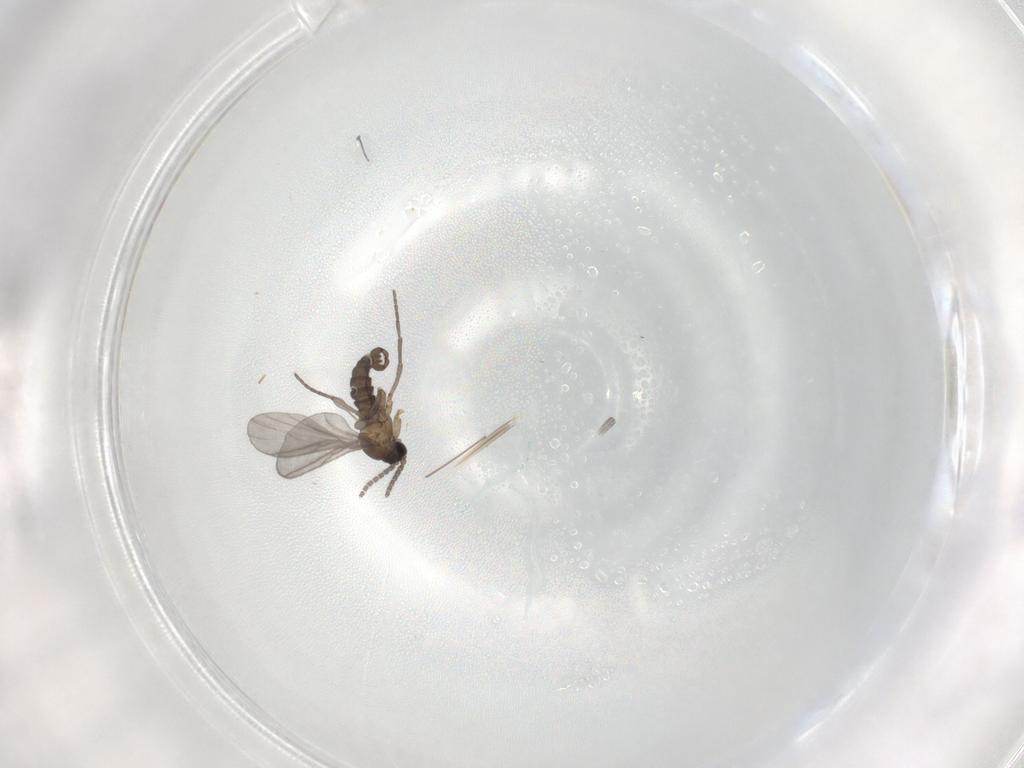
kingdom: Animalia
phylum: Arthropoda
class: Insecta
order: Diptera
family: Sciaridae
